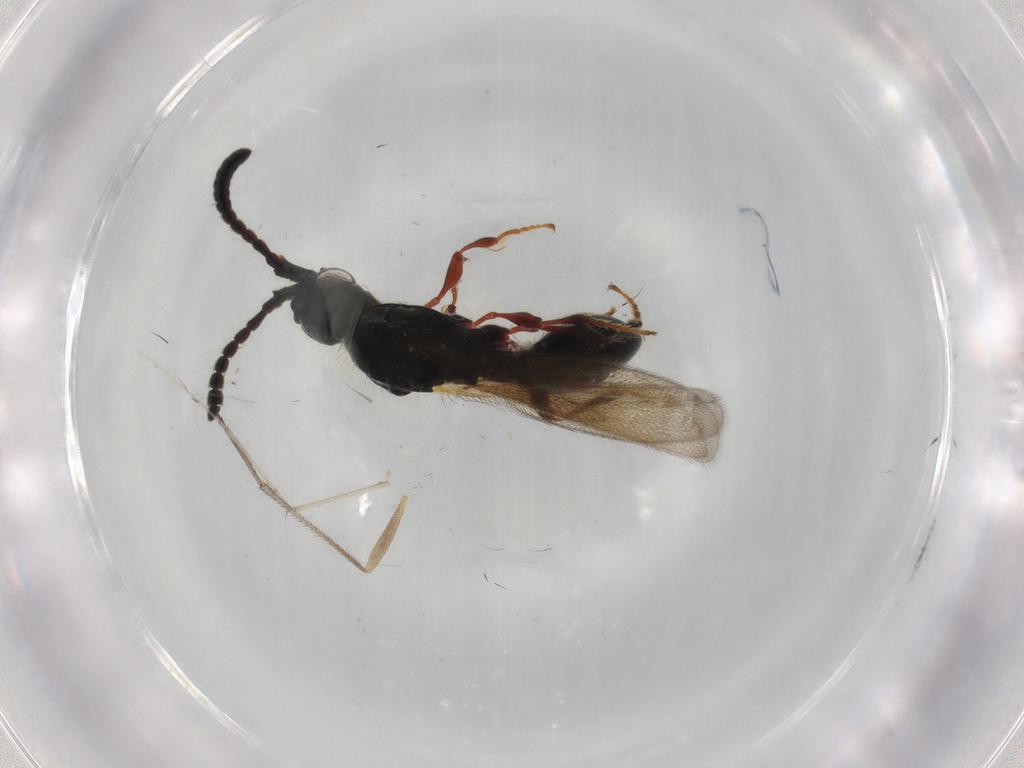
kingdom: Animalia
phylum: Arthropoda
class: Insecta
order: Hymenoptera
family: Diapriidae
